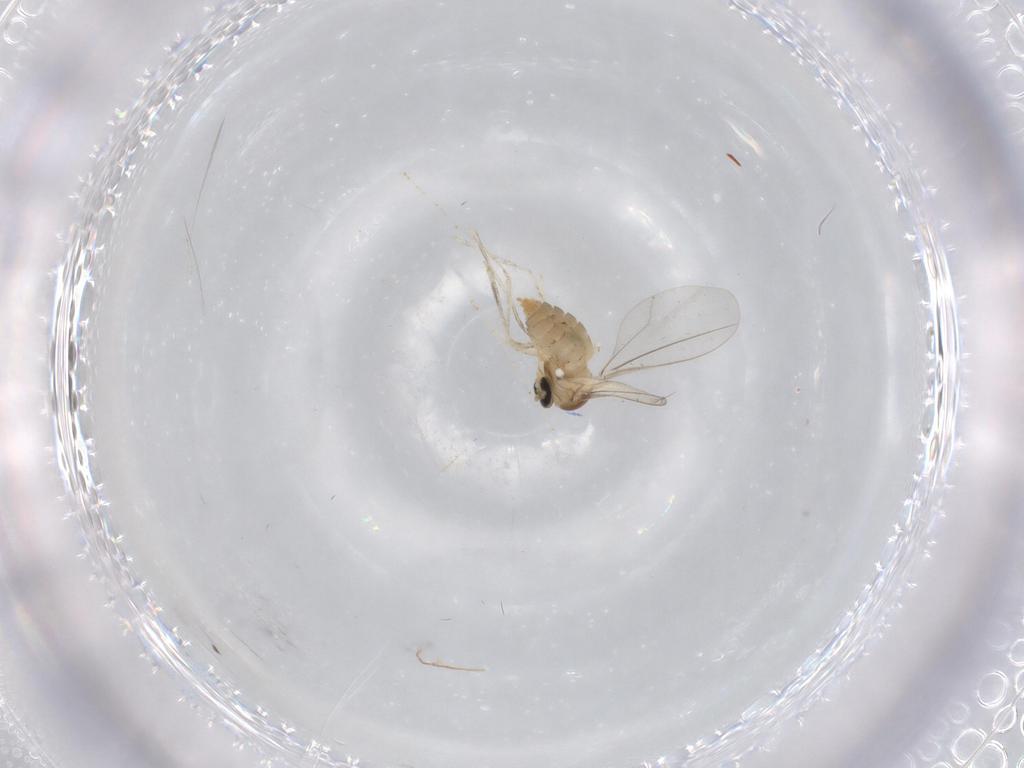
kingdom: Animalia
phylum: Arthropoda
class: Insecta
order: Diptera
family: Cecidomyiidae
